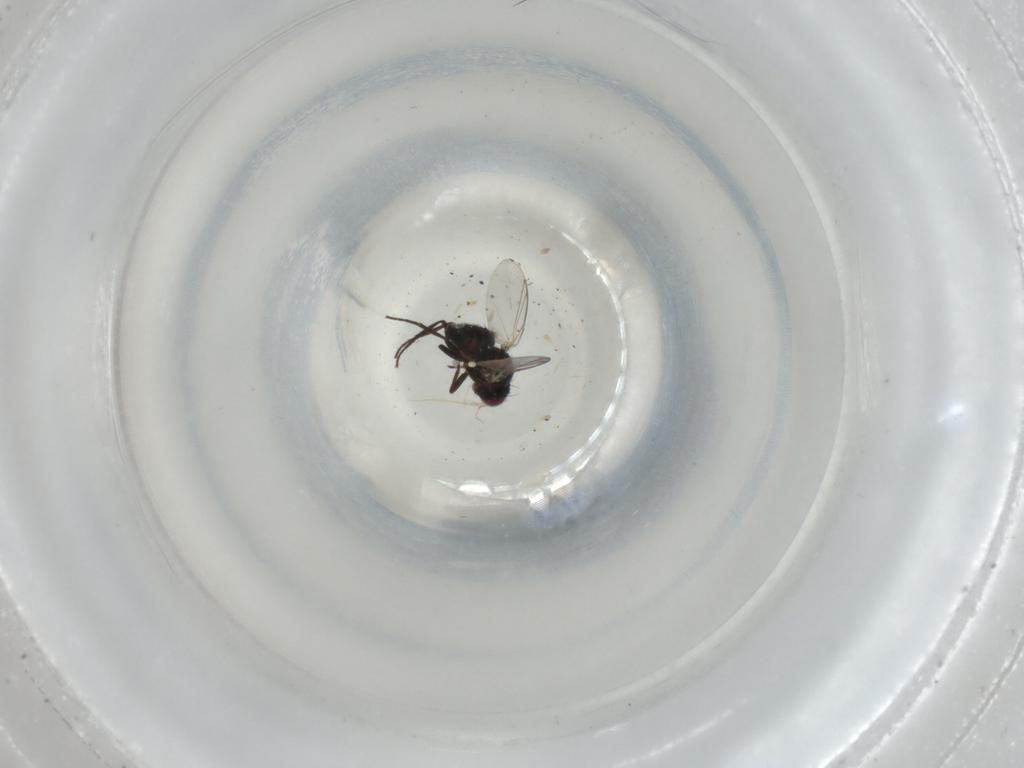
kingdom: Animalia
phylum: Arthropoda
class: Insecta
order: Diptera
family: Agromyzidae
